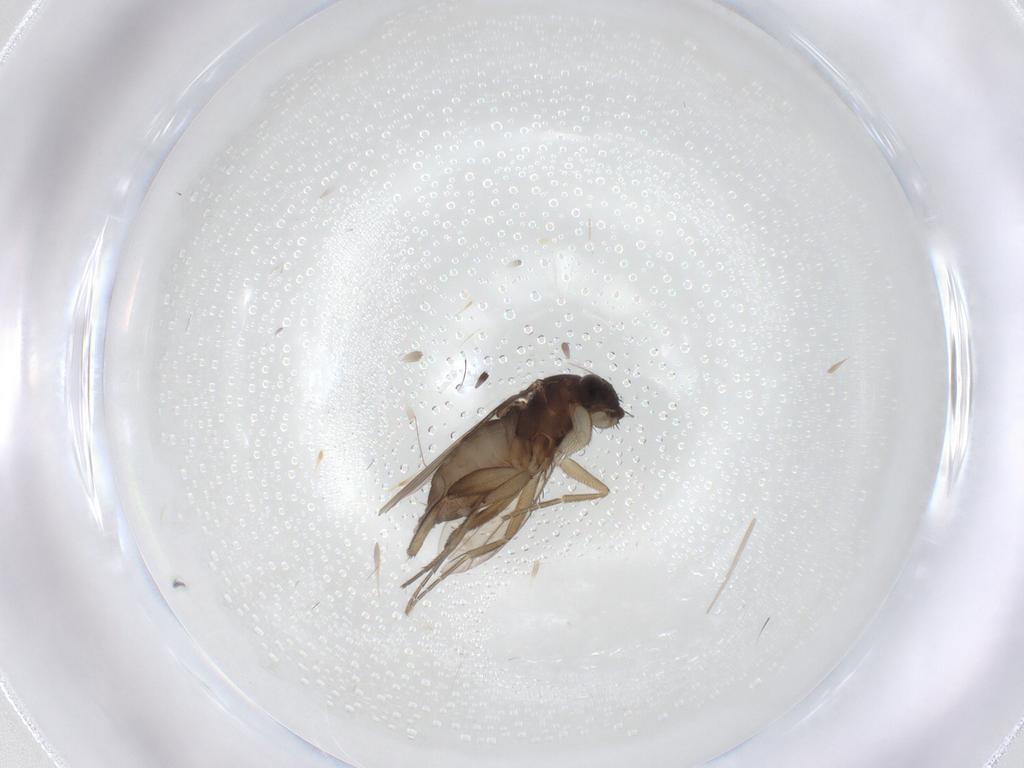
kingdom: Animalia
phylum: Arthropoda
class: Insecta
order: Diptera
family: Phoridae
